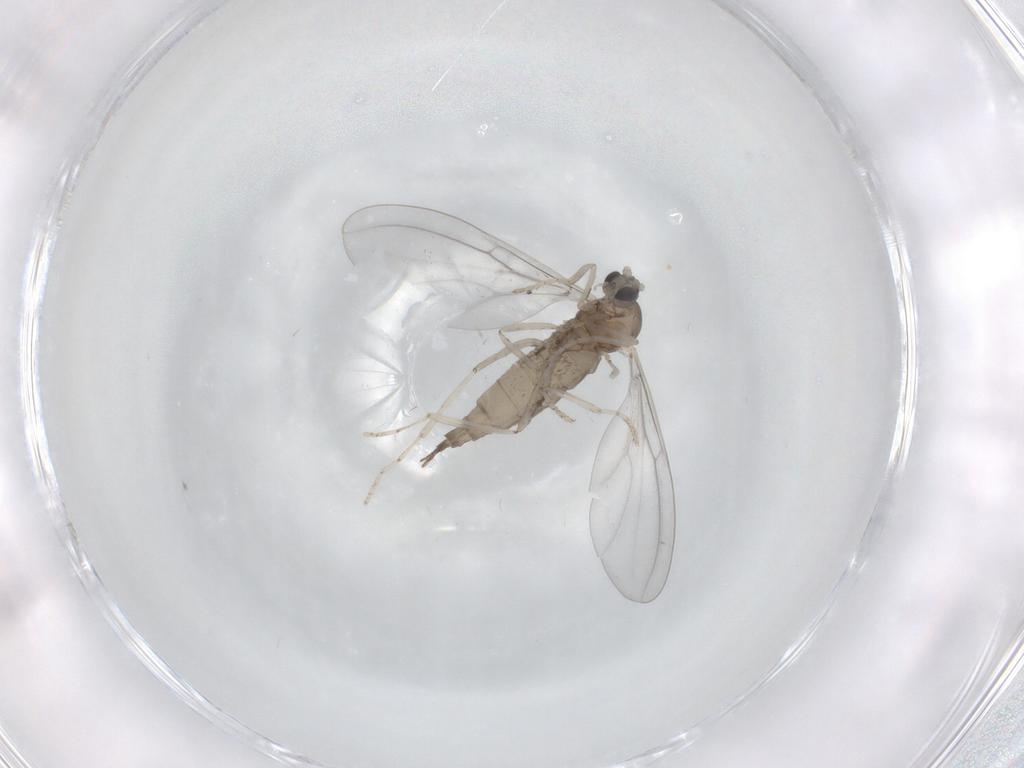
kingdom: Animalia
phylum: Arthropoda
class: Insecta
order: Diptera
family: Cecidomyiidae
